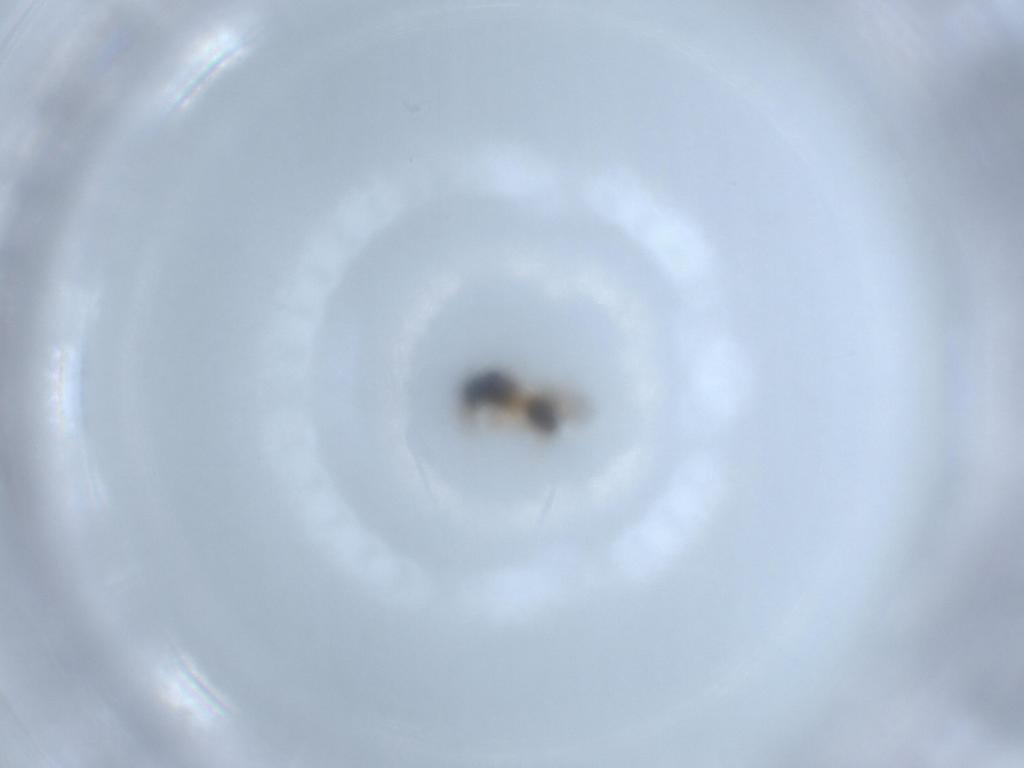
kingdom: Animalia
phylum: Arthropoda
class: Insecta
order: Hymenoptera
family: Scelionidae
